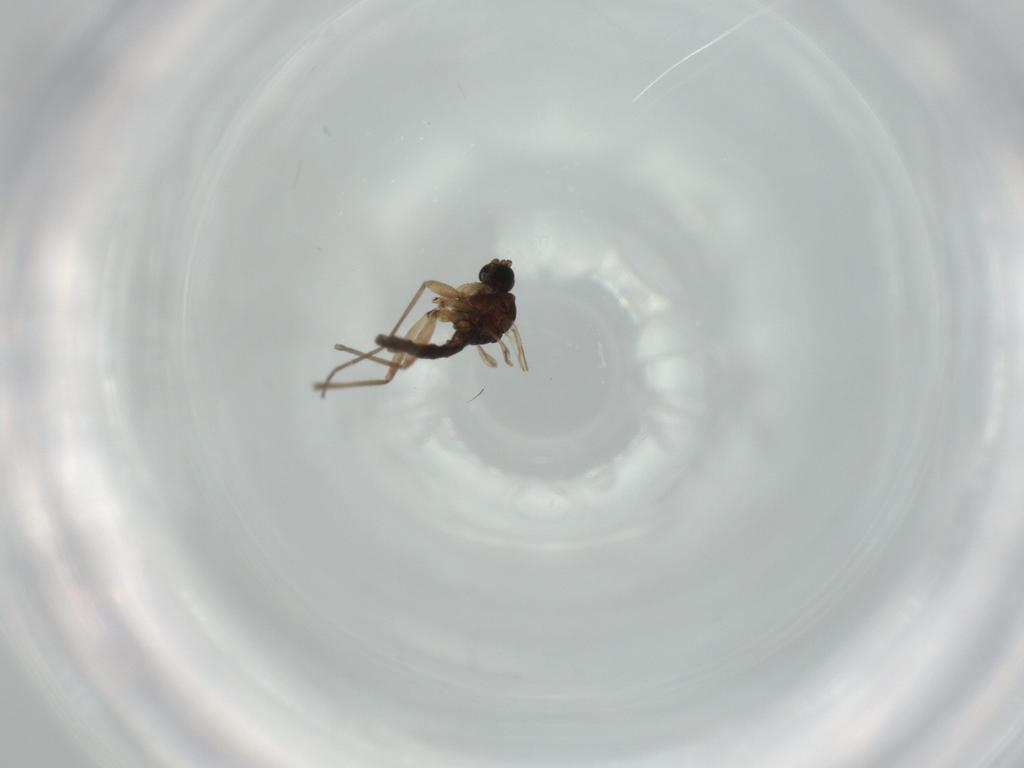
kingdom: Animalia
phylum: Arthropoda
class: Insecta
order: Diptera
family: Sciaridae
